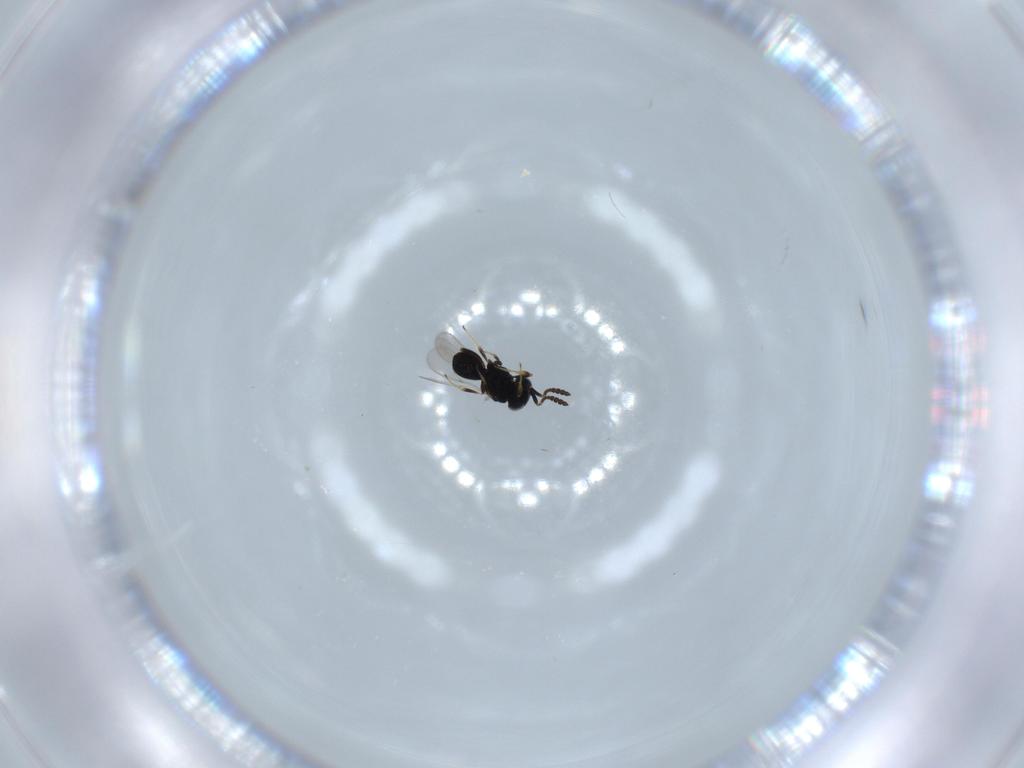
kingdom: Animalia
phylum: Arthropoda
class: Insecta
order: Hymenoptera
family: Scelionidae
